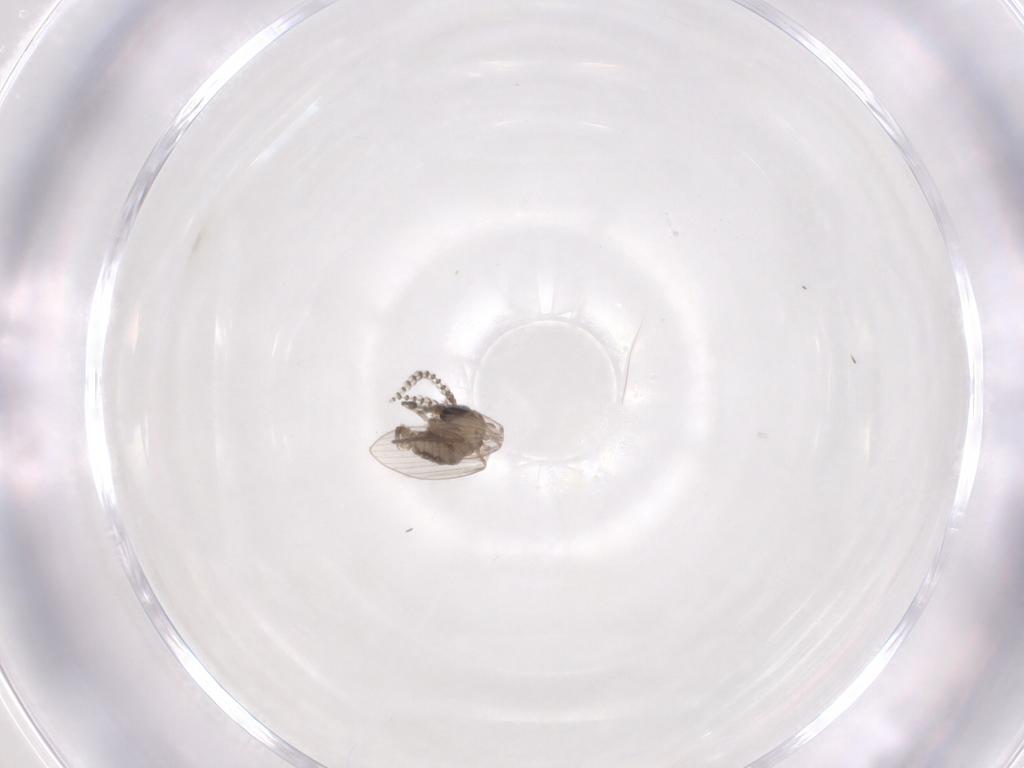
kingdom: Animalia
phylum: Arthropoda
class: Insecta
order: Diptera
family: Psychodidae
